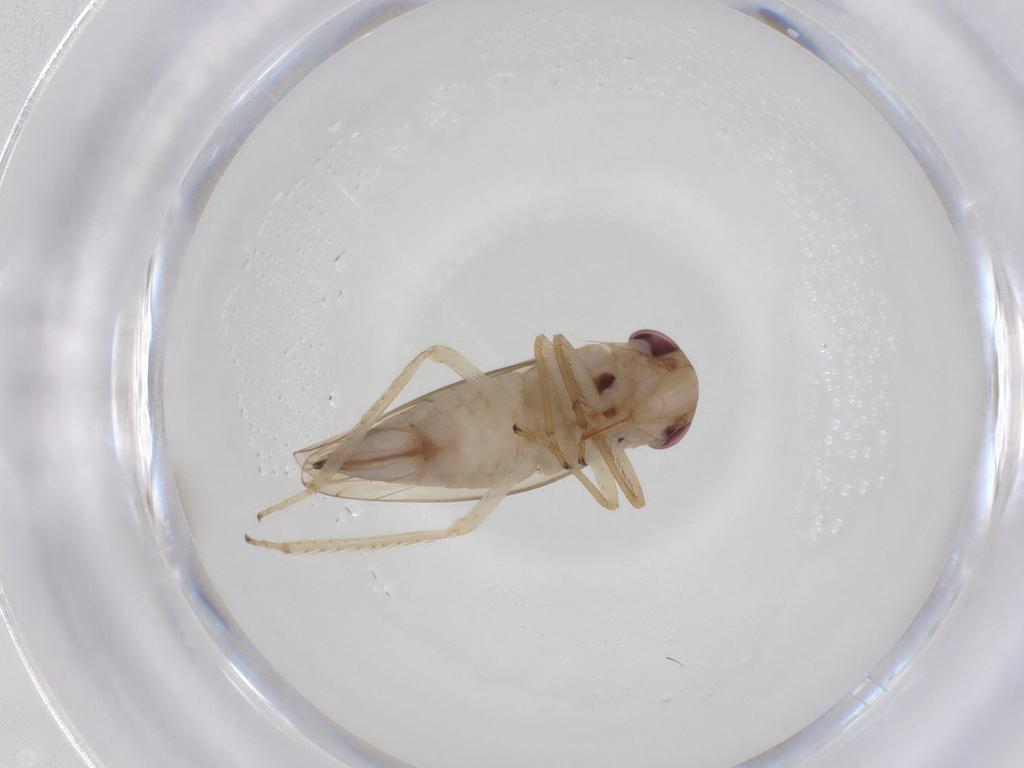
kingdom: Animalia
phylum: Arthropoda
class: Insecta
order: Hemiptera
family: Cicadellidae
